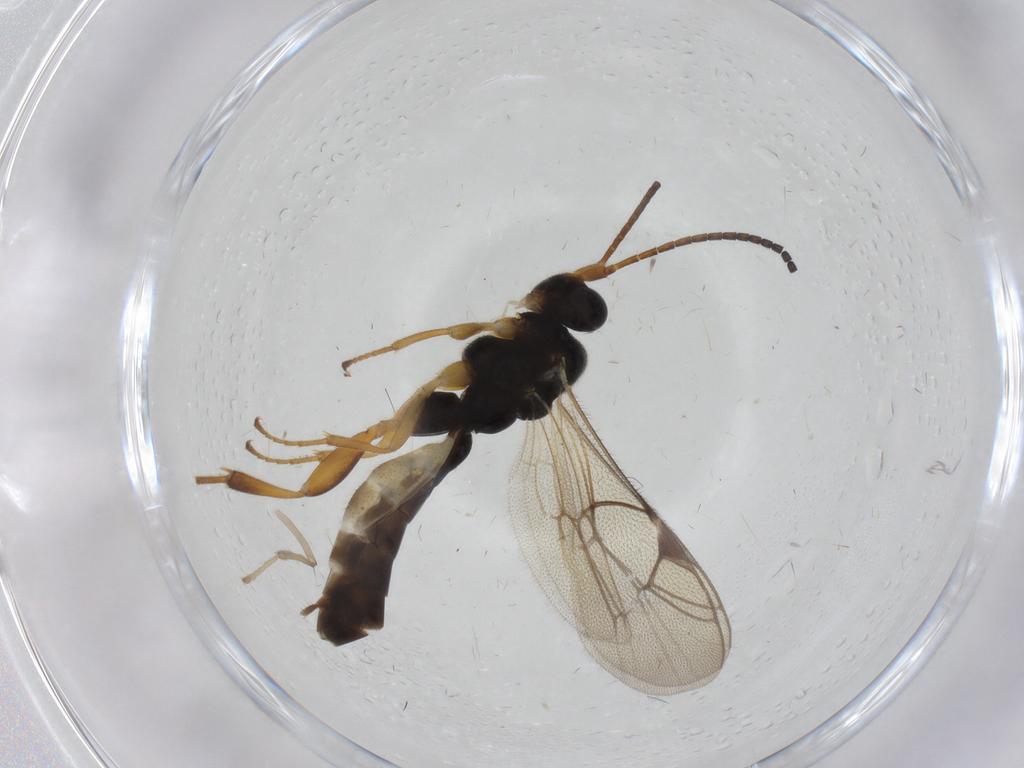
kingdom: Animalia
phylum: Arthropoda
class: Insecta
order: Hymenoptera
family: Ichneumonidae
